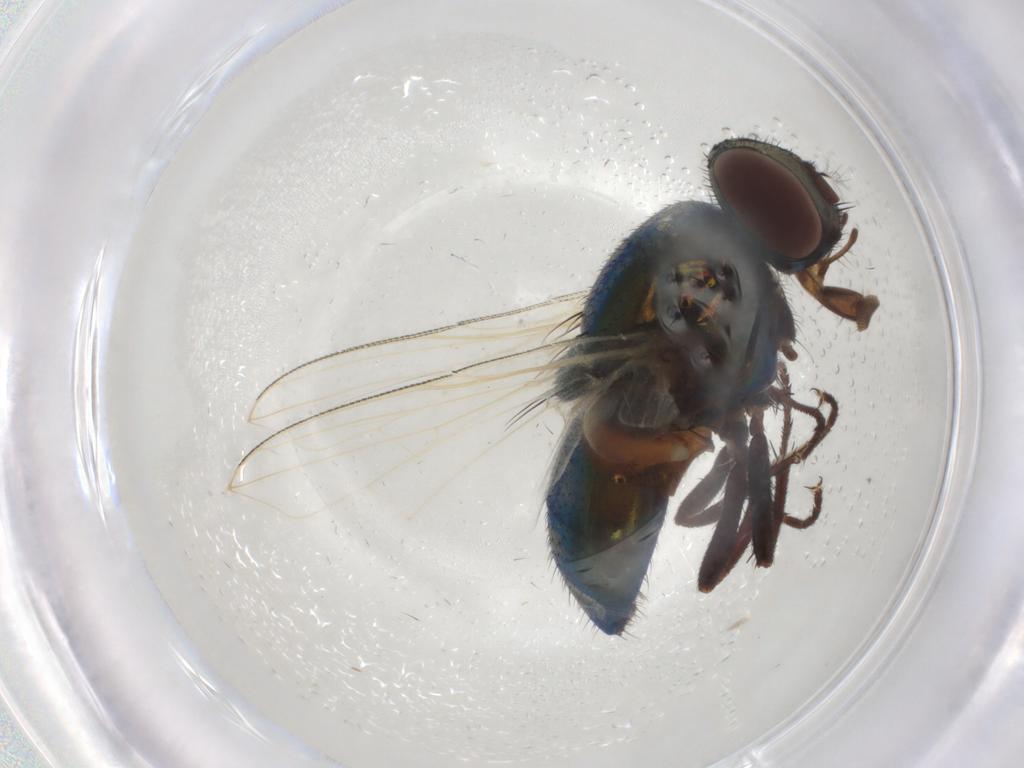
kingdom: Animalia
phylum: Arthropoda
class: Insecta
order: Diptera
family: Muscidae
